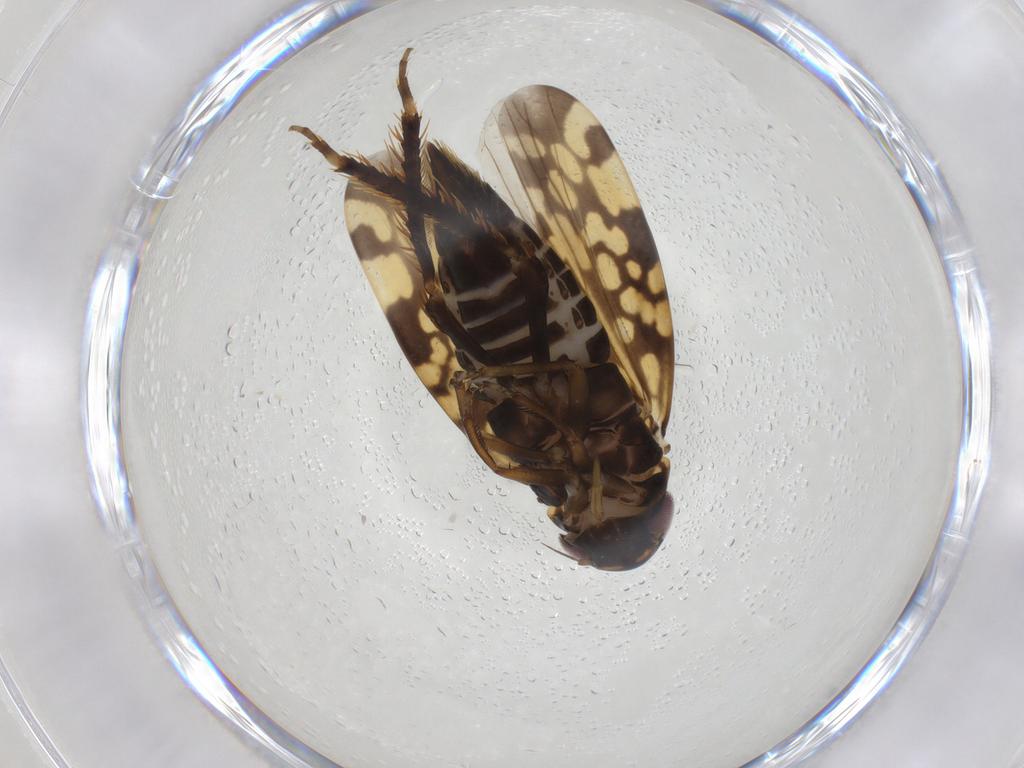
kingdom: Animalia
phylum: Arthropoda
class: Insecta
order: Hemiptera
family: Cicadellidae
